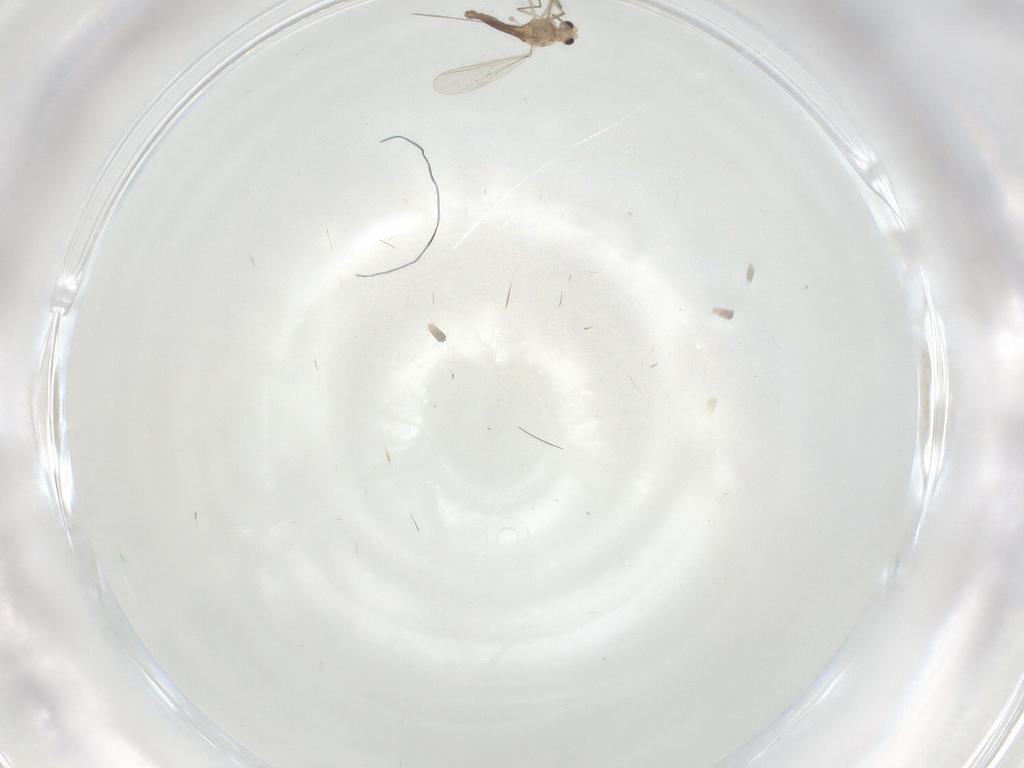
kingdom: Animalia
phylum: Arthropoda
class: Insecta
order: Diptera
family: Chironomidae
